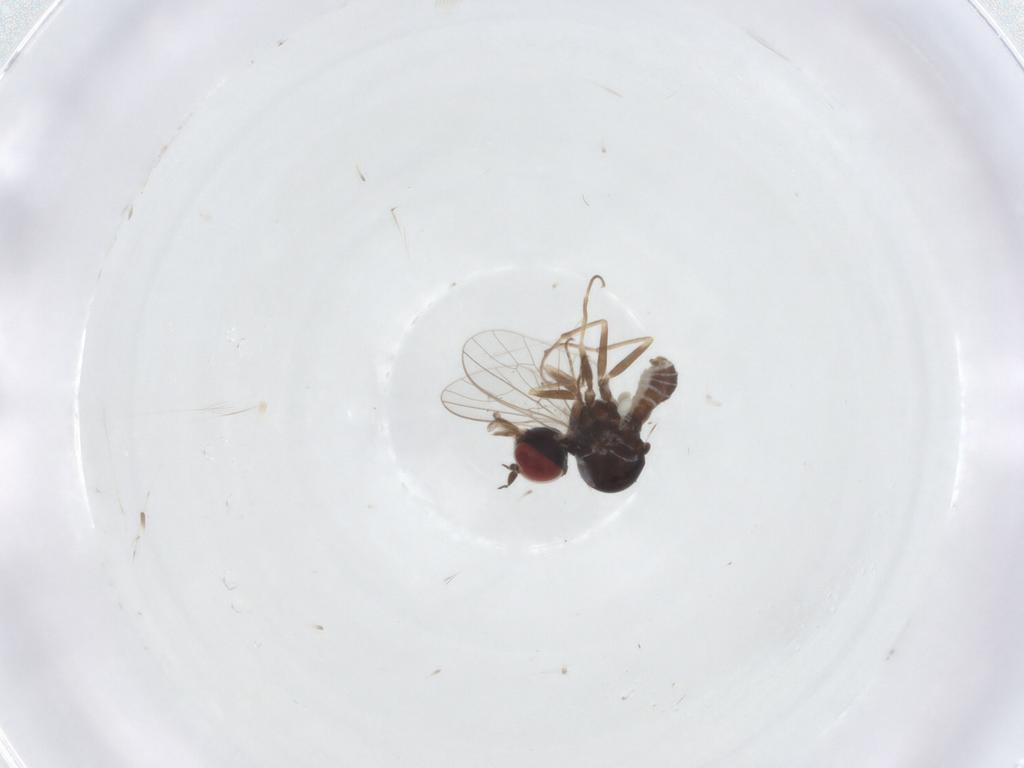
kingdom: Animalia
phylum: Arthropoda
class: Insecta
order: Diptera
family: Bombyliidae
